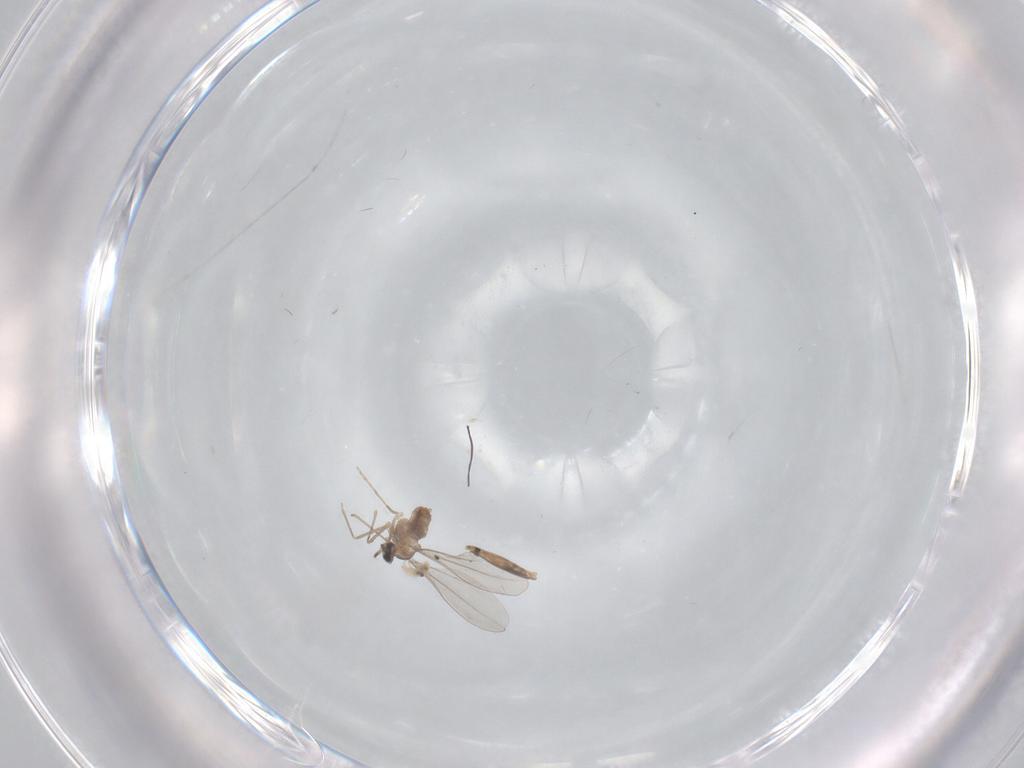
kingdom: Animalia
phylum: Arthropoda
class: Insecta
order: Diptera
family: Cecidomyiidae
